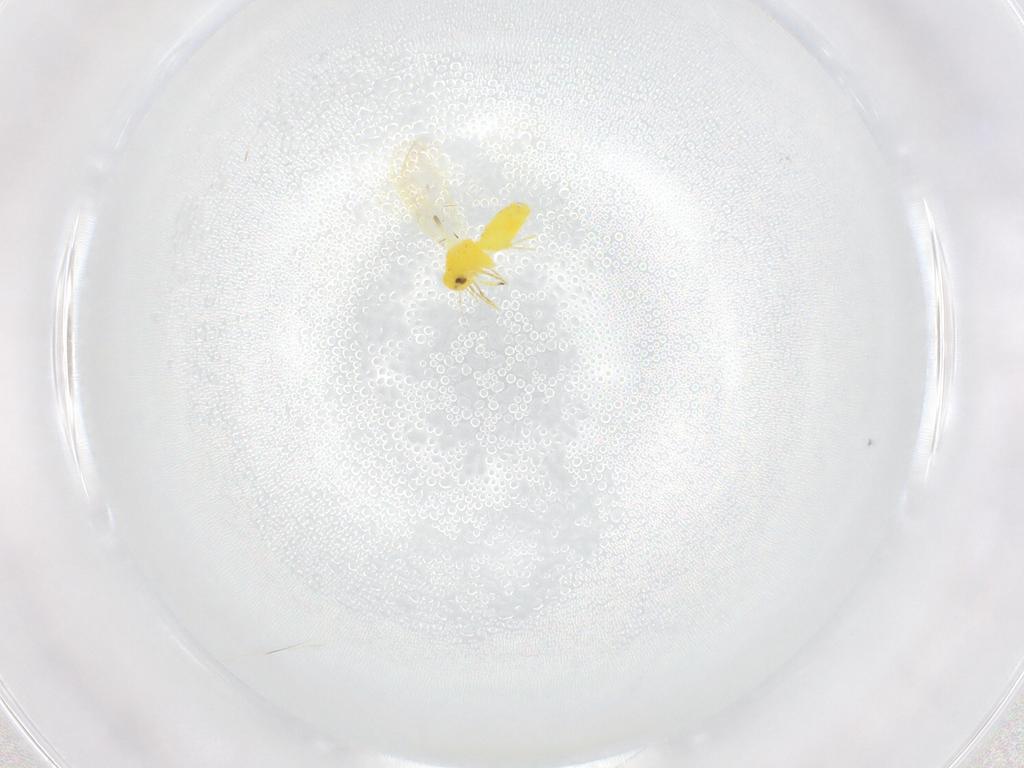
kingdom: Animalia
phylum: Arthropoda
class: Insecta
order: Hemiptera
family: Aleyrodidae
